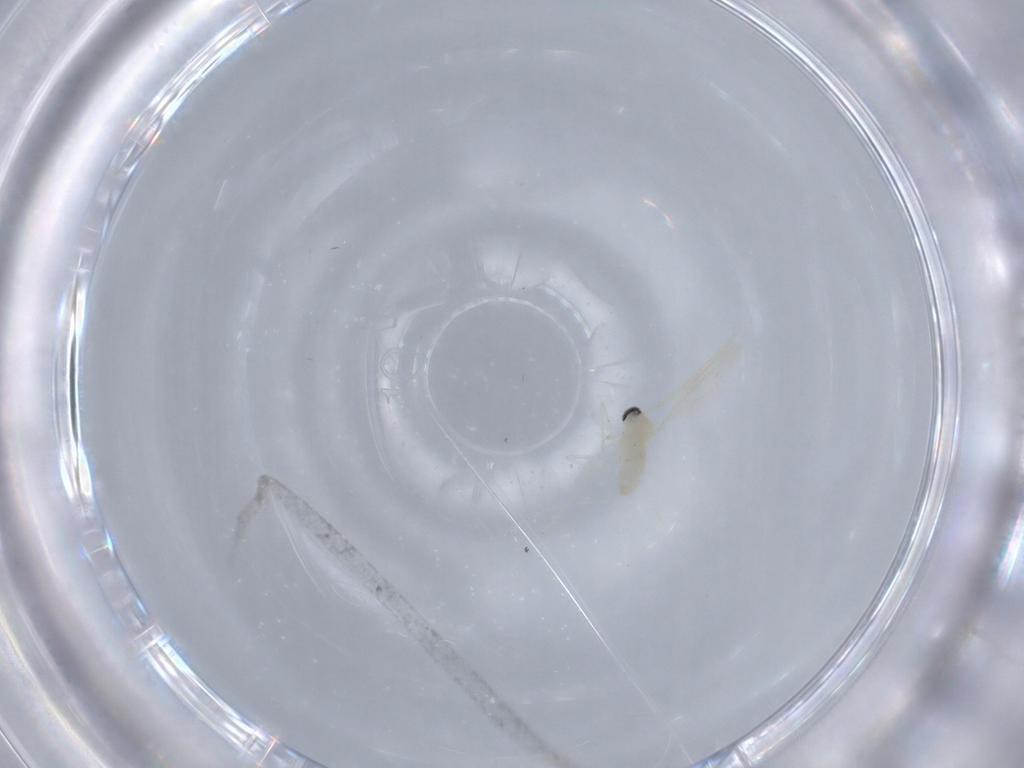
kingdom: Animalia
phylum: Arthropoda
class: Insecta
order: Diptera
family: Cecidomyiidae
